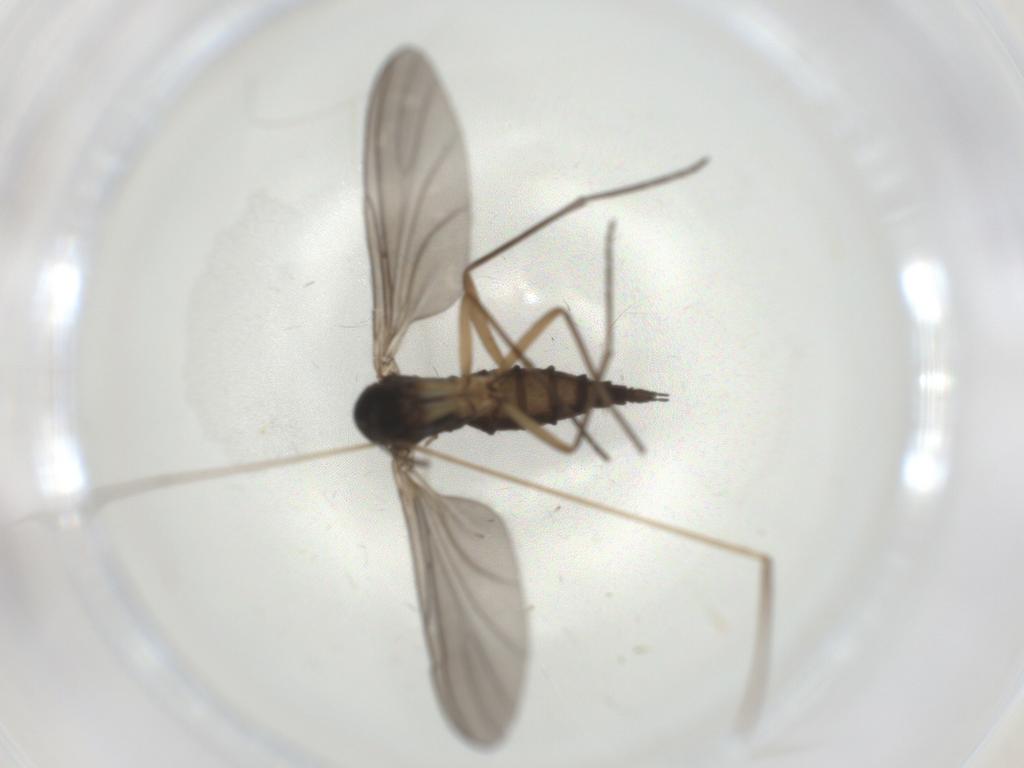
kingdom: Animalia
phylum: Arthropoda
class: Insecta
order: Diptera
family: Sciaridae
